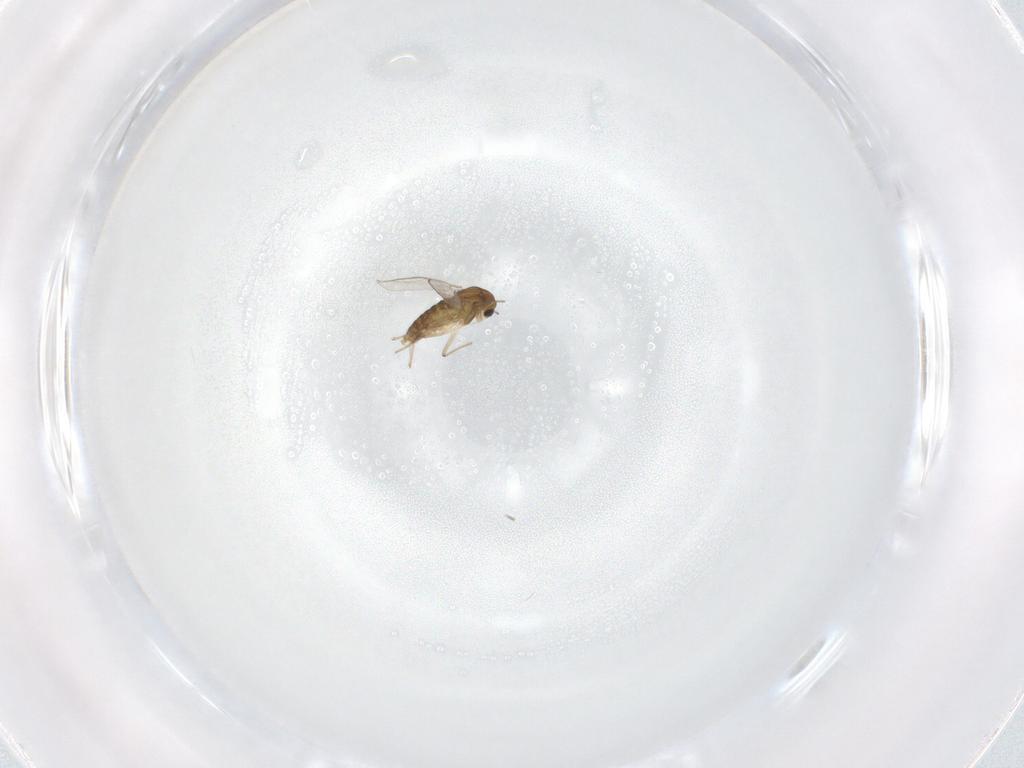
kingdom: Animalia
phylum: Arthropoda
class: Insecta
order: Diptera
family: Chironomidae
